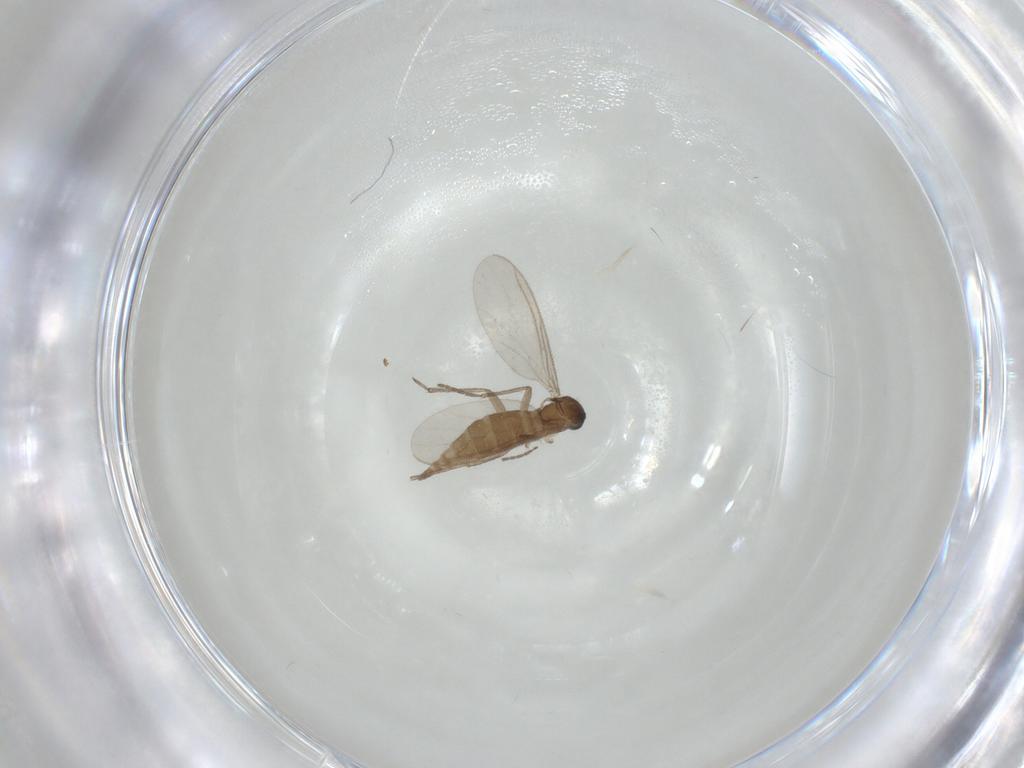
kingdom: Animalia
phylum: Arthropoda
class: Insecta
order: Diptera
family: Sciaridae
